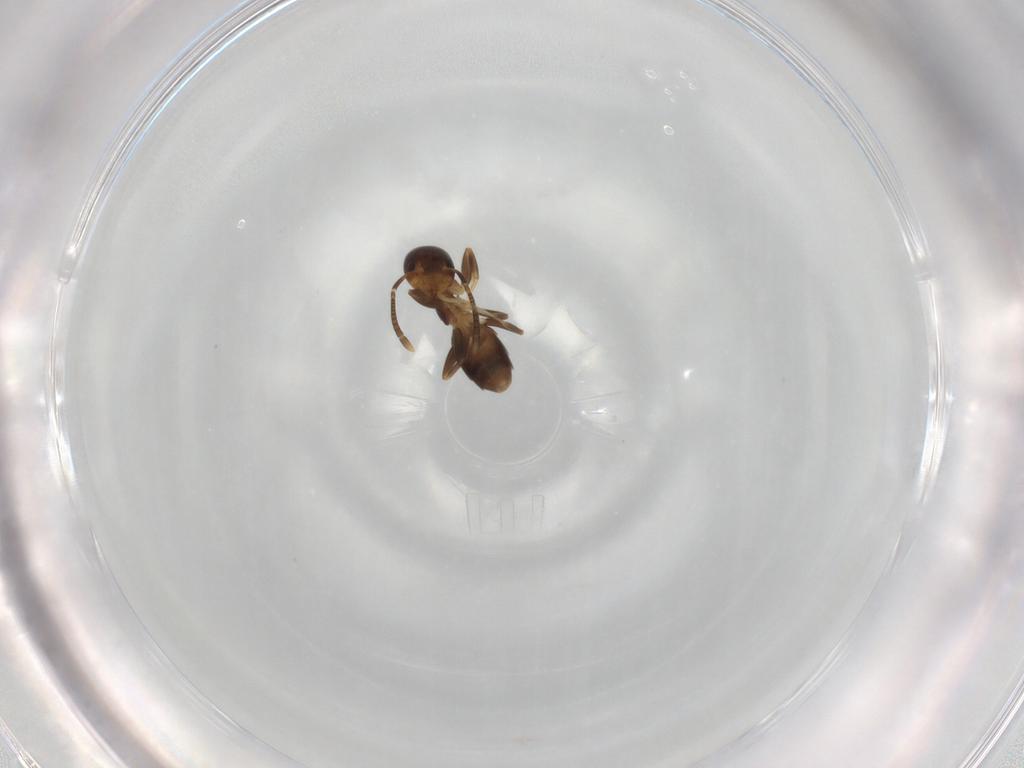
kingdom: Animalia
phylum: Arthropoda
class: Insecta
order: Hymenoptera
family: Formicidae
